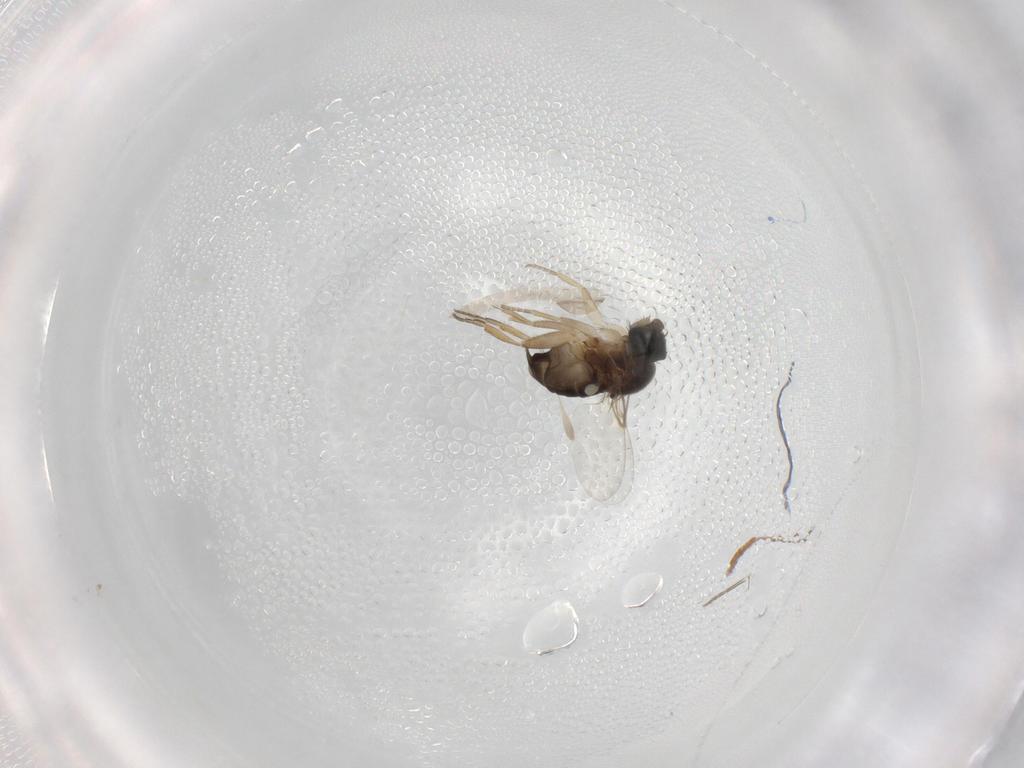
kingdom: Animalia
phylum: Arthropoda
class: Insecta
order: Diptera
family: Phoridae
